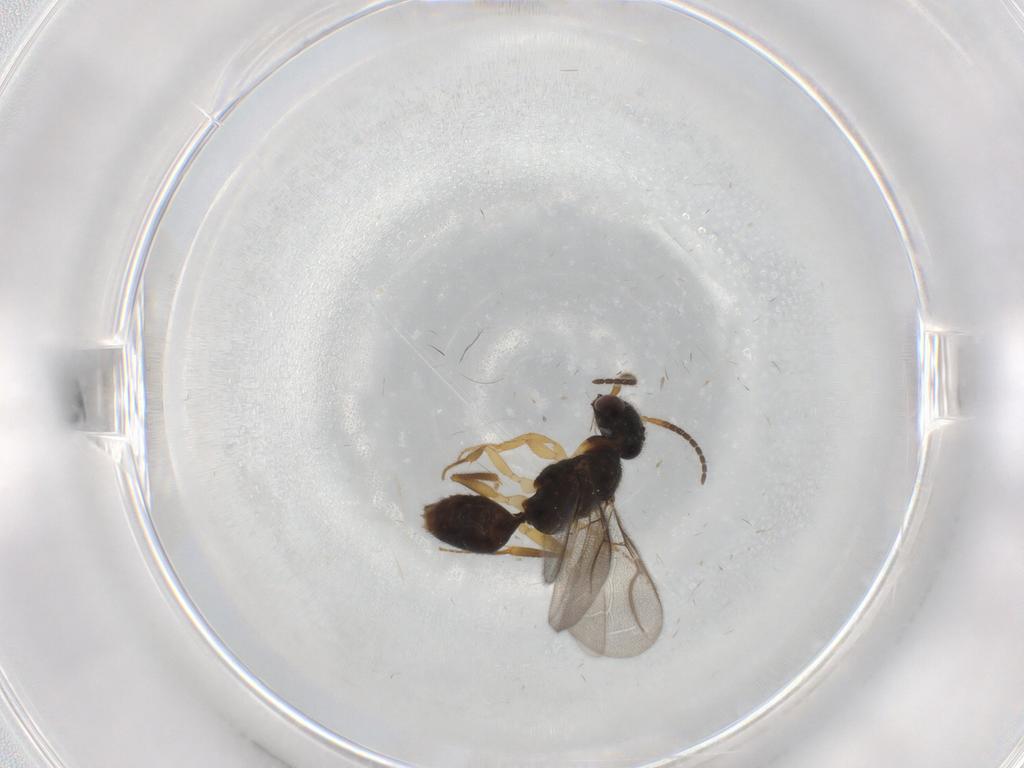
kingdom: Animalia
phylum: Arthropoda
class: Insecta
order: Hymenoptera
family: Bethylidae
